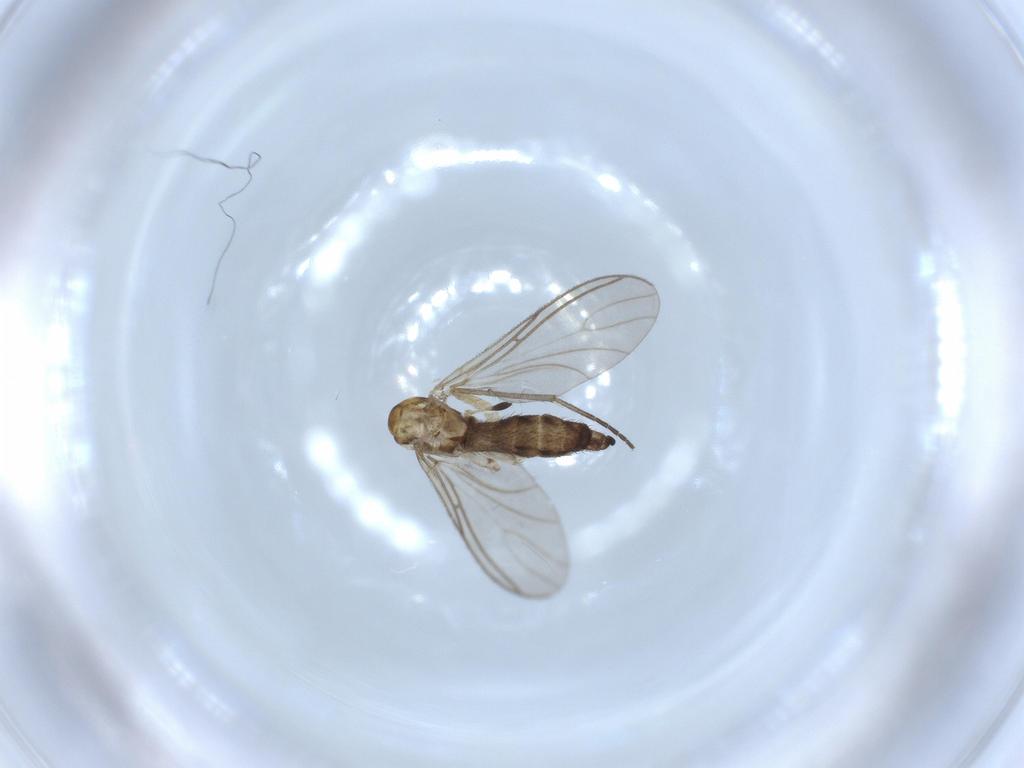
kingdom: Animalia
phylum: Arthropoda
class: Insecta
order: Diptera
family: Sciaridae
